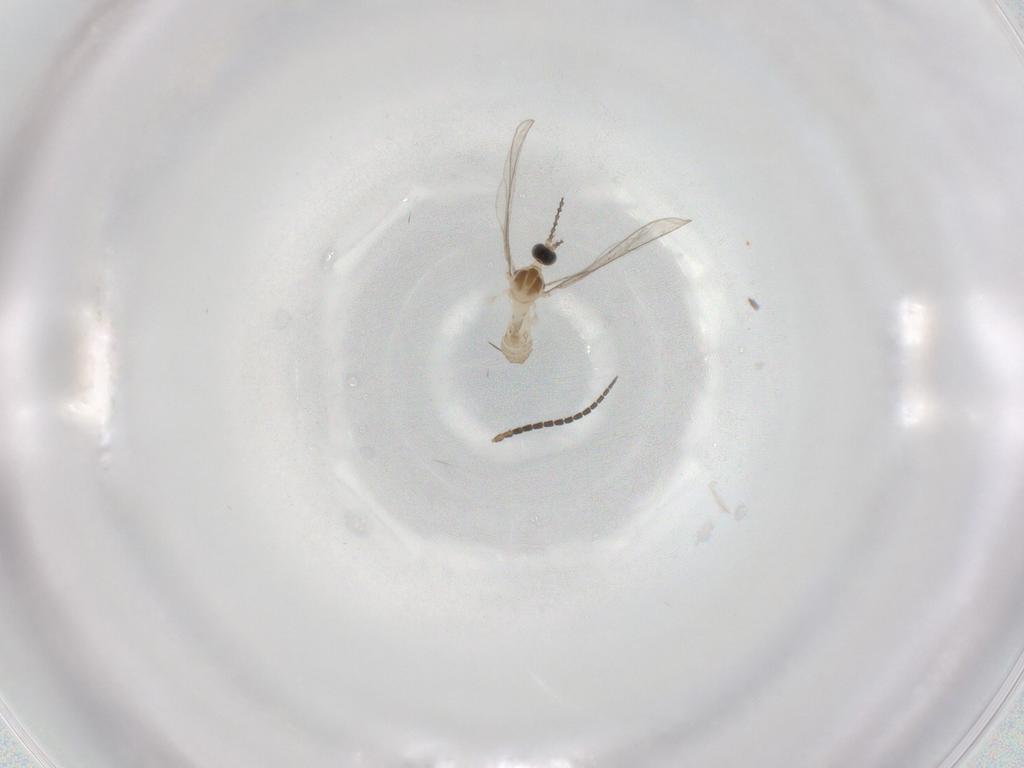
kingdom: Animalia
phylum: Arthropoda
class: Insecta
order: Diptera
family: Cecidomyiidae
